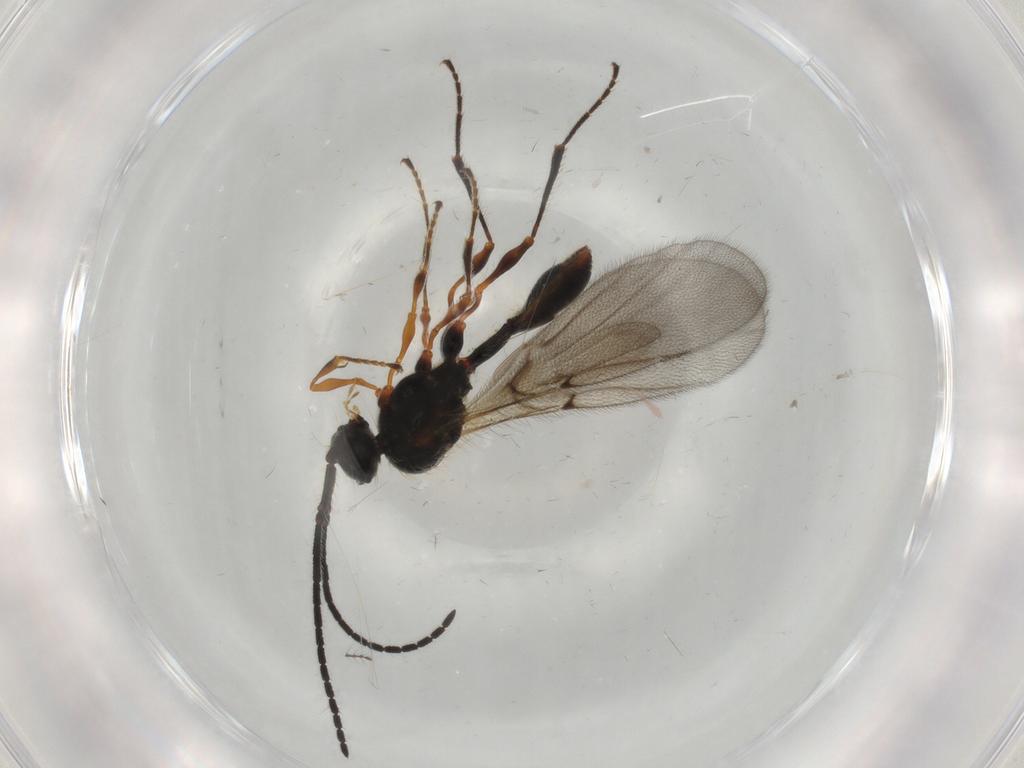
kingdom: Animalia
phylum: Arthropoda
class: Insecta
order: Hymenoptera
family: Diapriidae
